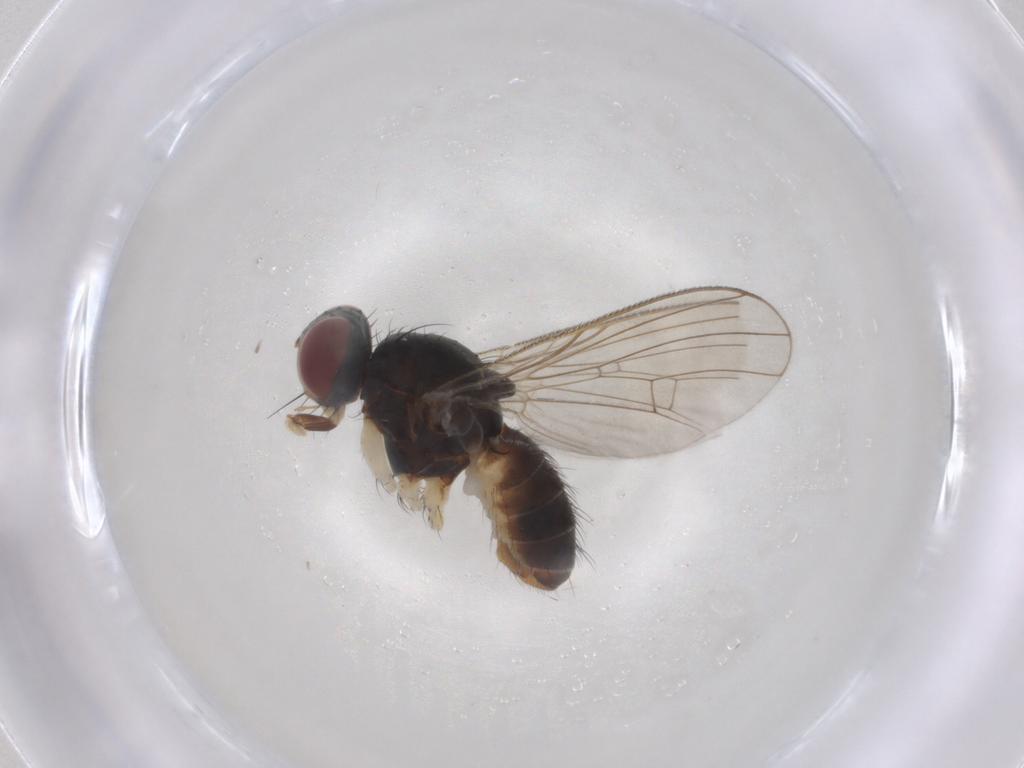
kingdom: Animalia
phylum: Arthropoda
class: Insecta
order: Diptera
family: Muscidae
